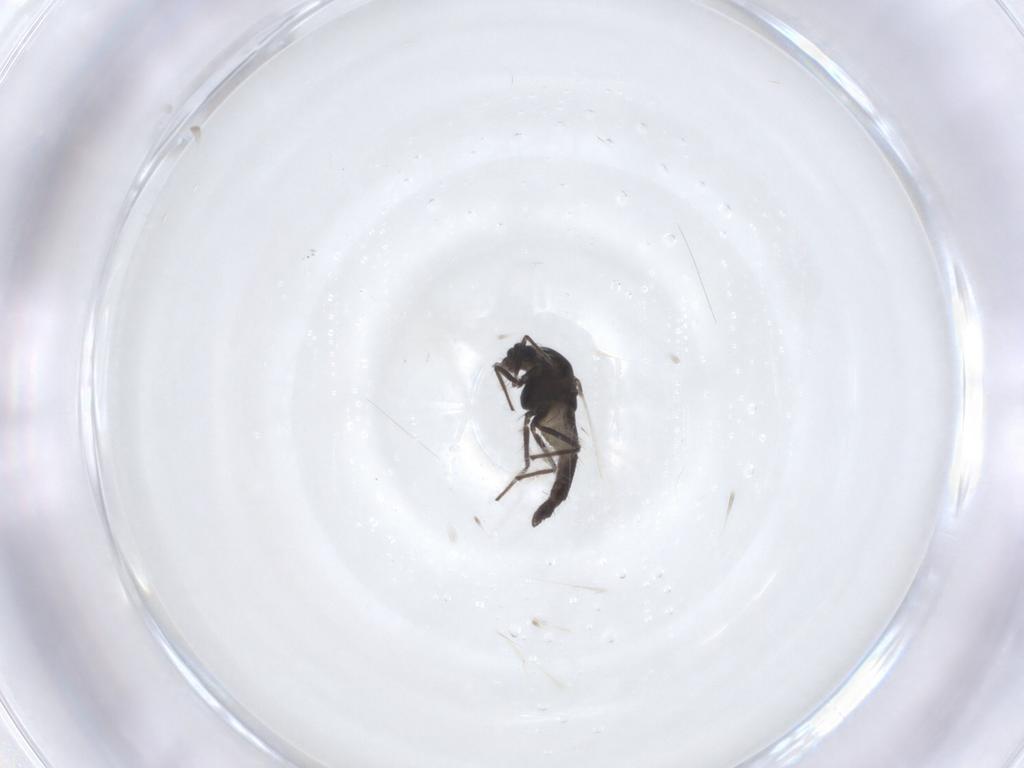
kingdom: Animalia
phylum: Arthropoda
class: Insecta
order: Diptera
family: Chironomidae
